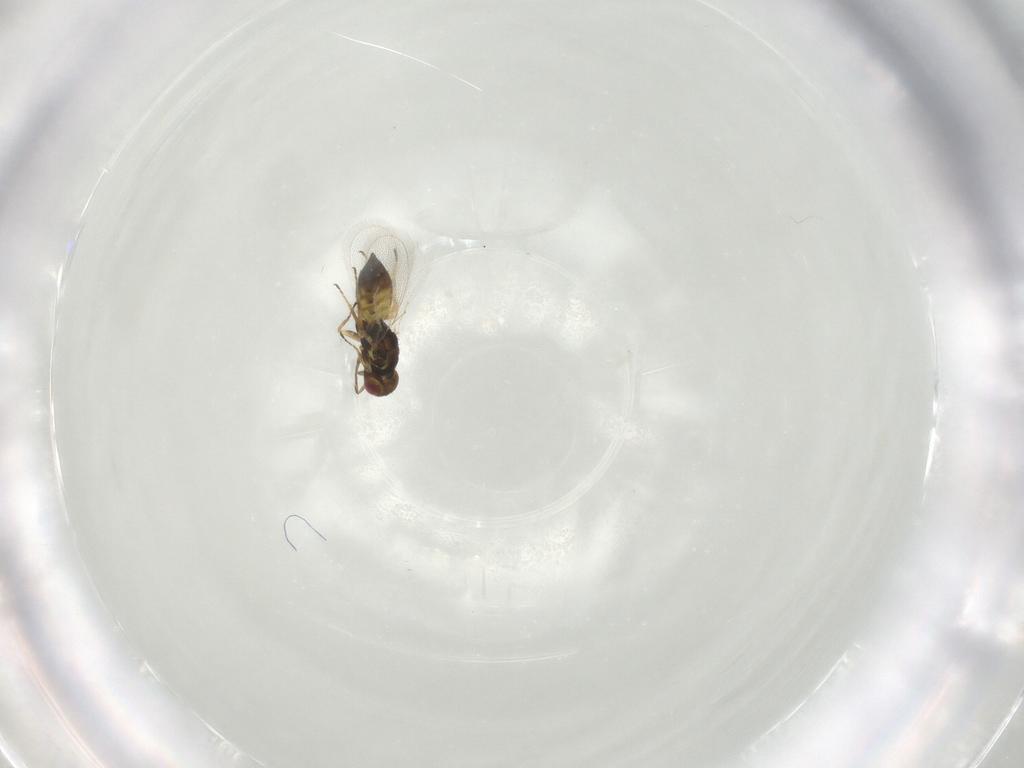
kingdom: Animalia
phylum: Arthropoda
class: Insecta
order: Hymenoptera
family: Eulophidae
